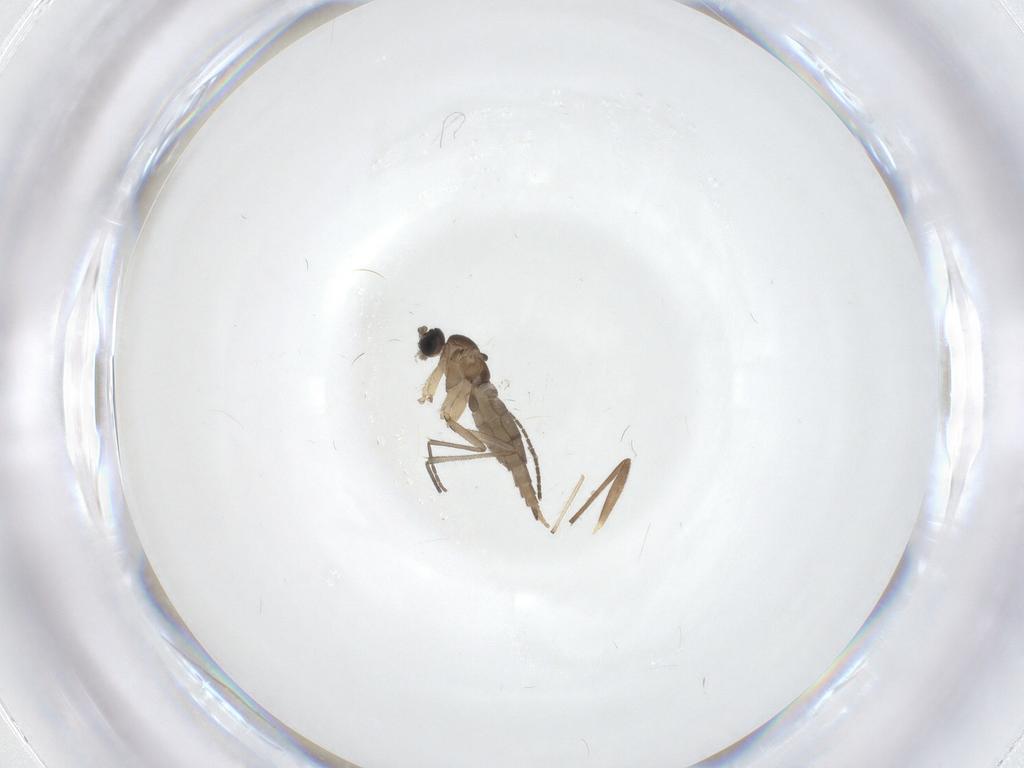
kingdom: Animalia
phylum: Arthropoda
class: Insecta
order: Diptera
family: Sciaridae
